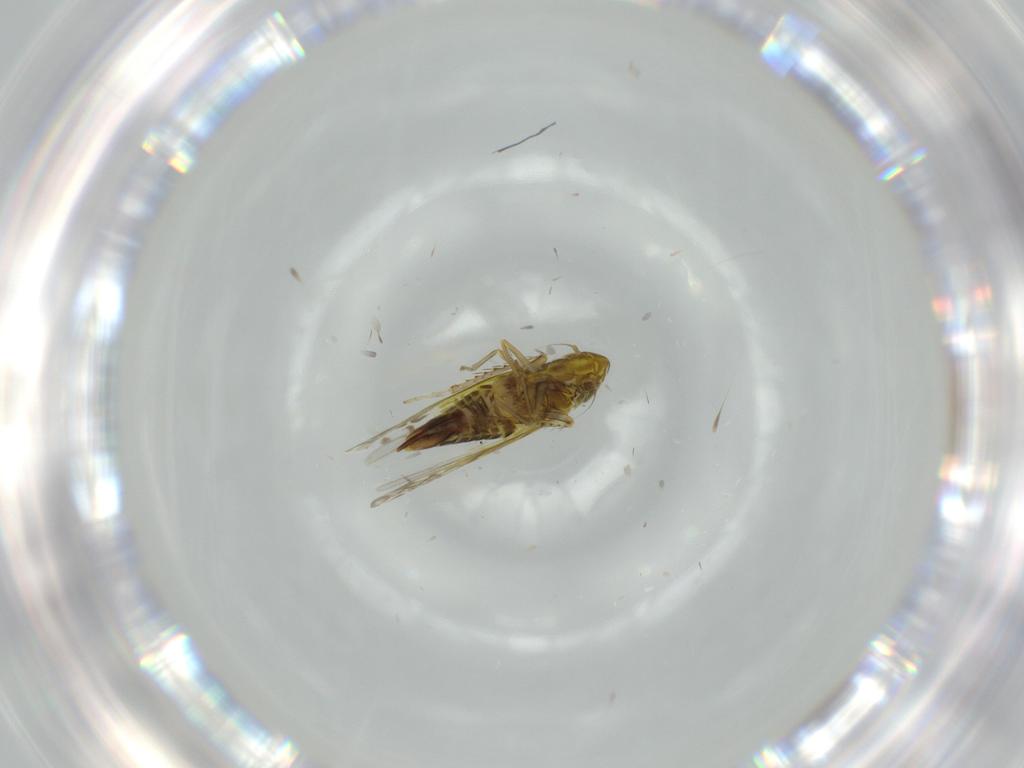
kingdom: Animalia
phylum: Arthropoda
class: Insecta
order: Hemiptera
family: Cicadellidae
